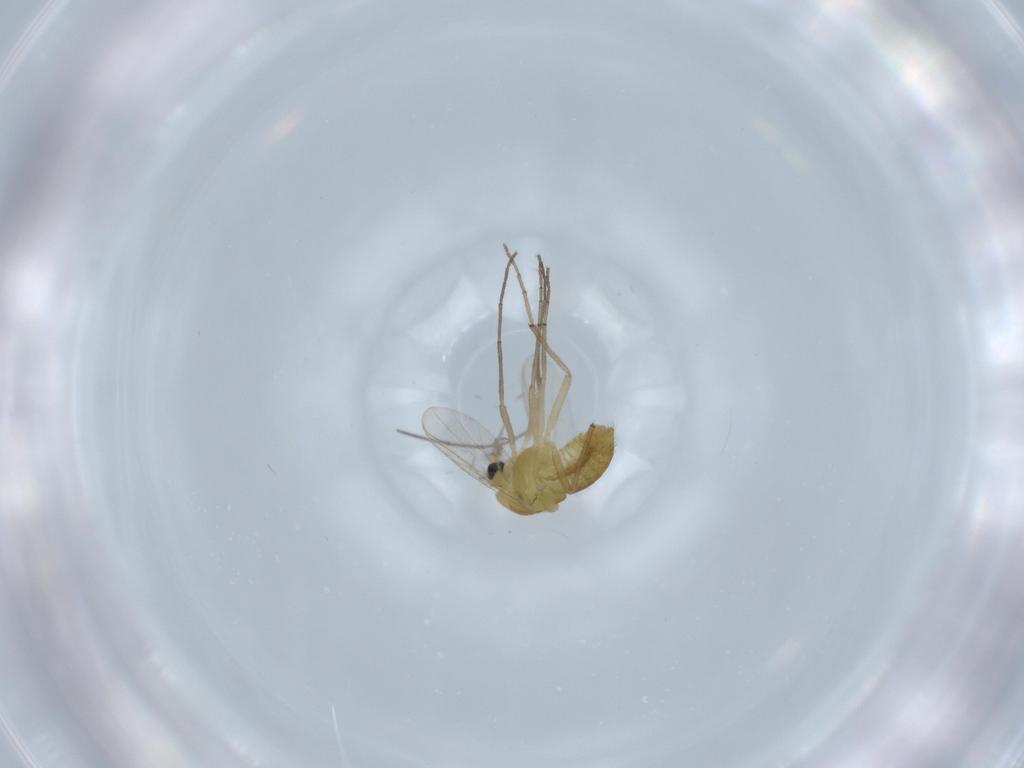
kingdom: Animalia
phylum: Arthropoda
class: Insecta
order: Diptera
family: Chironomidae
